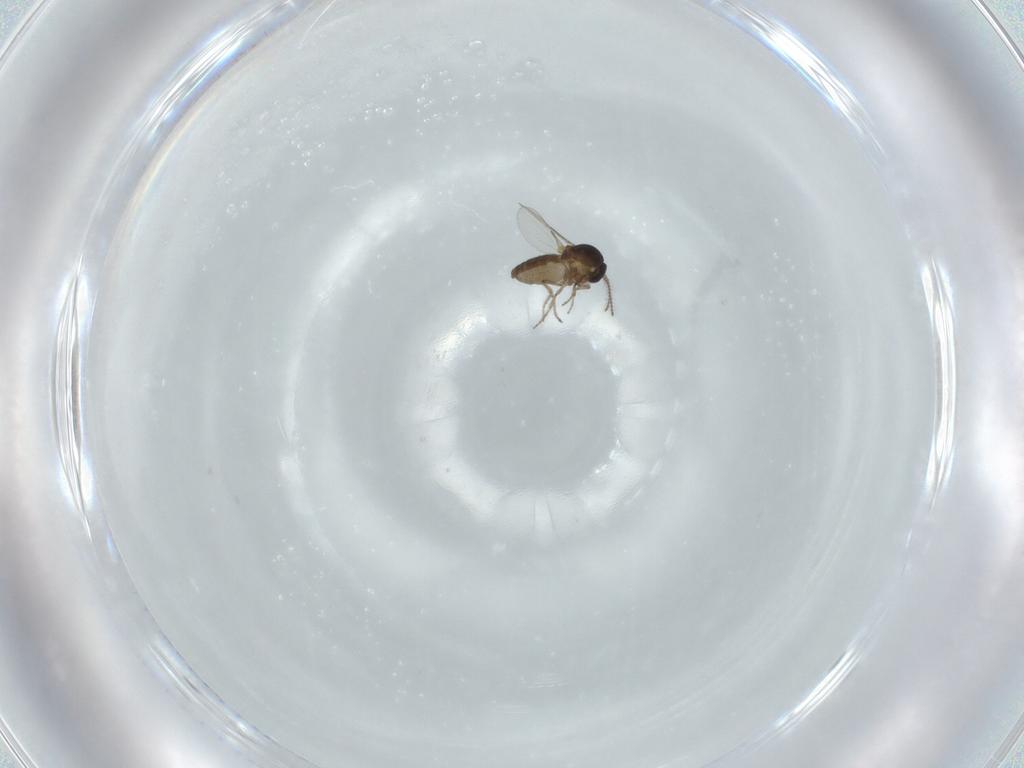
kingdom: Animalia
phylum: Arthropoda
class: Insecta
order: Diptera
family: Ceratopogonidae
